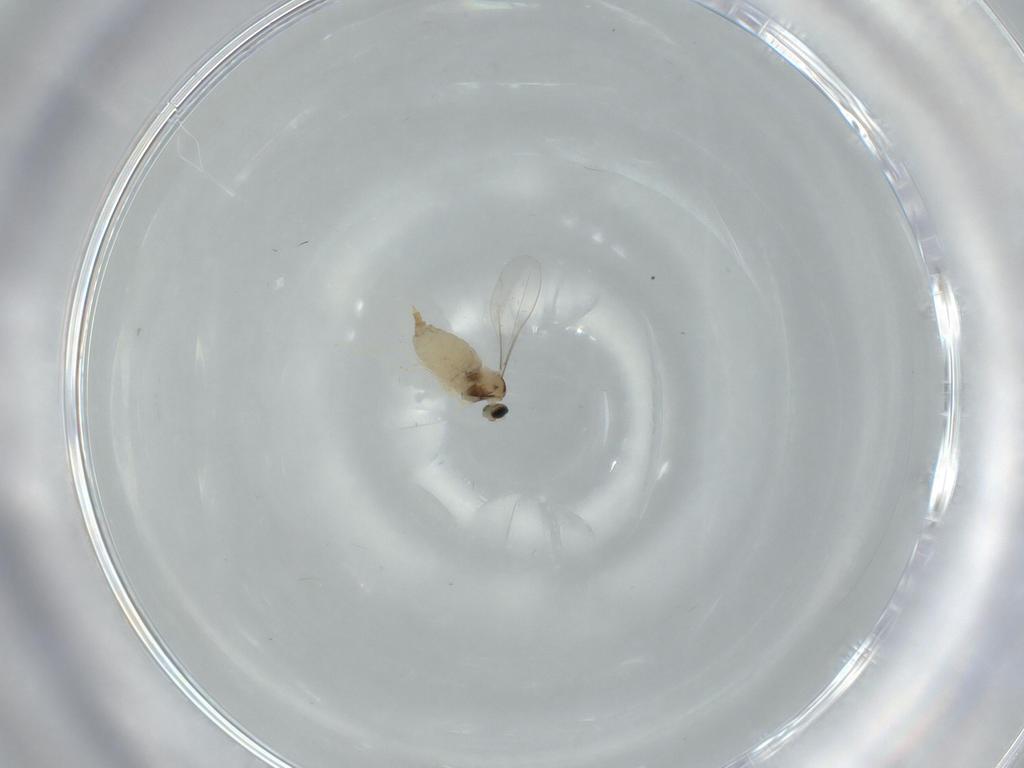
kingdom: Animalia
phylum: Arthropoda
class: Insecta
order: Diptera
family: Cecidomyiidae
